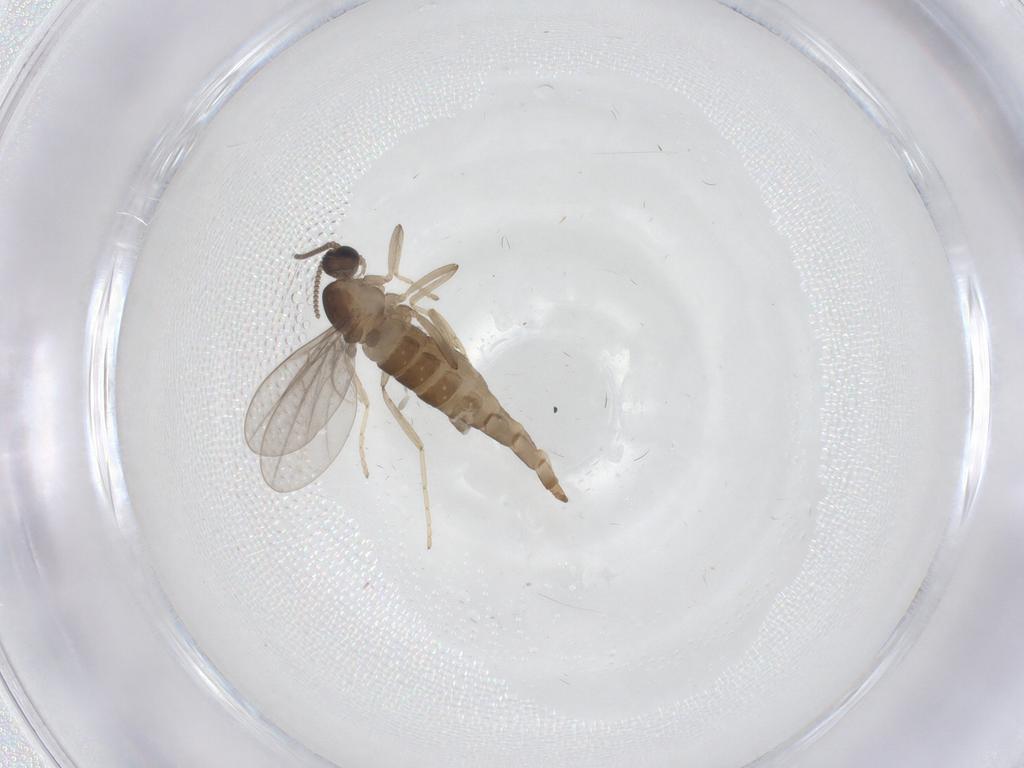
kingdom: Animalia
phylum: Arthropoda
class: Insecta
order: Diptera
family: Cecidomyiidae
